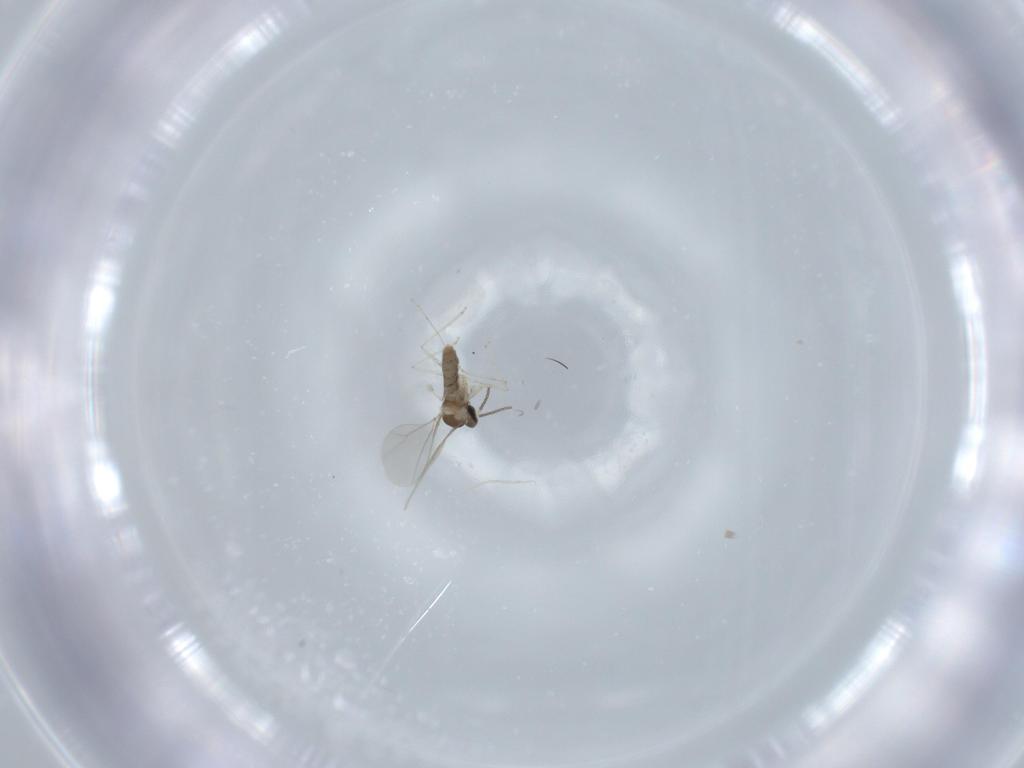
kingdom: Animalia
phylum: Arthropoda
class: Insecta
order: Diptera
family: Cecidomyiidae
